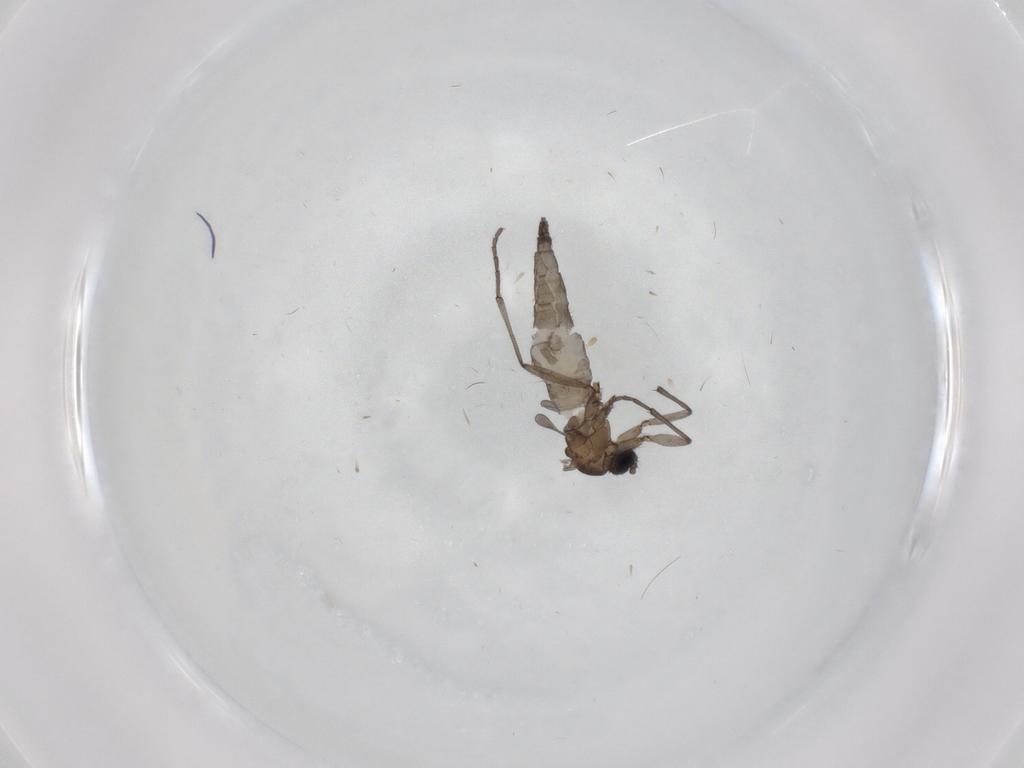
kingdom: Animalia
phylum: Arthropoda
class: Insecta
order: Diptera
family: Sciaridae
